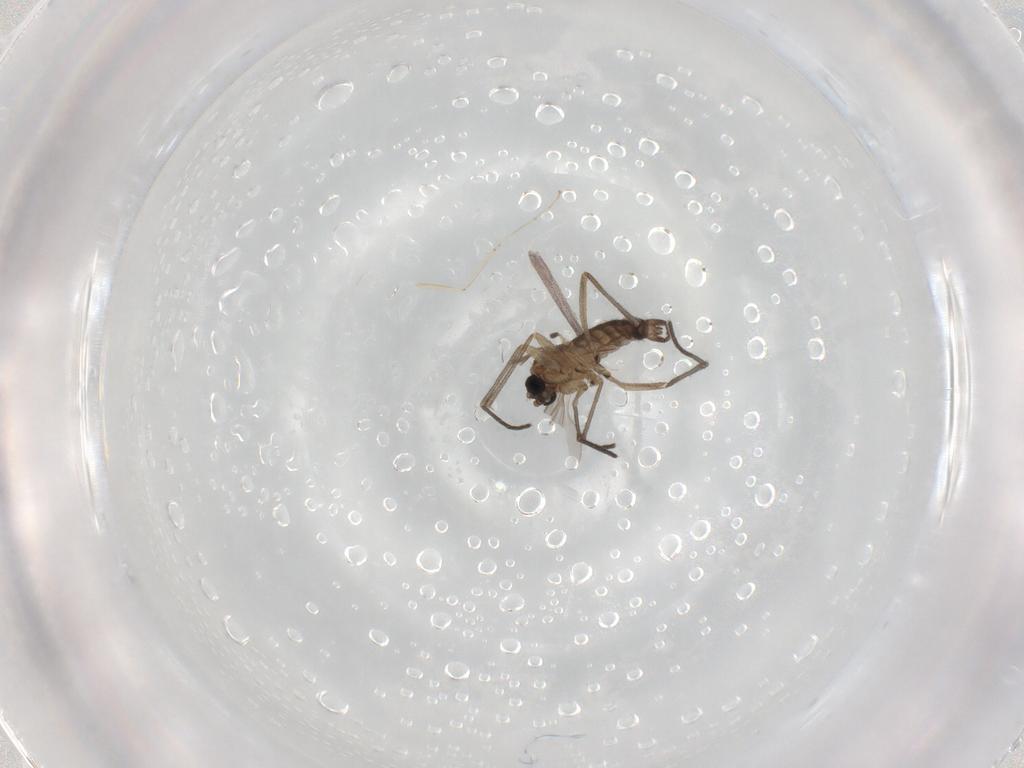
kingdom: Animalia
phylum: Arthropoda
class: Insecta
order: Diptera
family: Sciaridae
